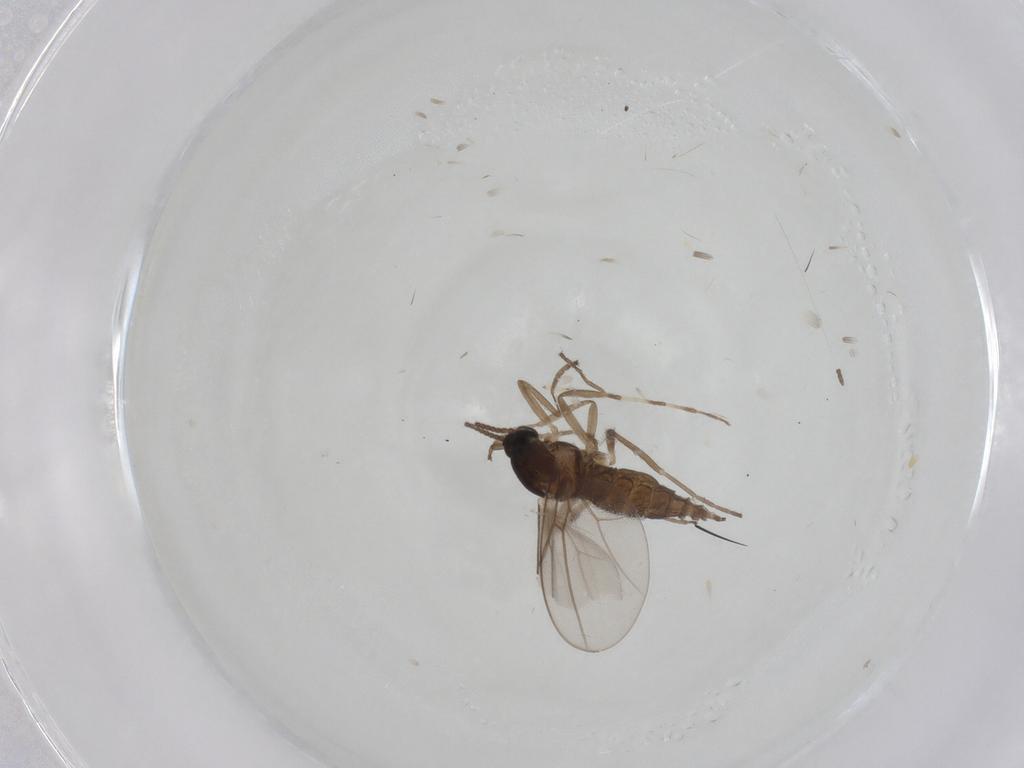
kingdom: Animalia
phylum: Arthropoda
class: Insecta
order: Diptera
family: Cecidomyiidae
